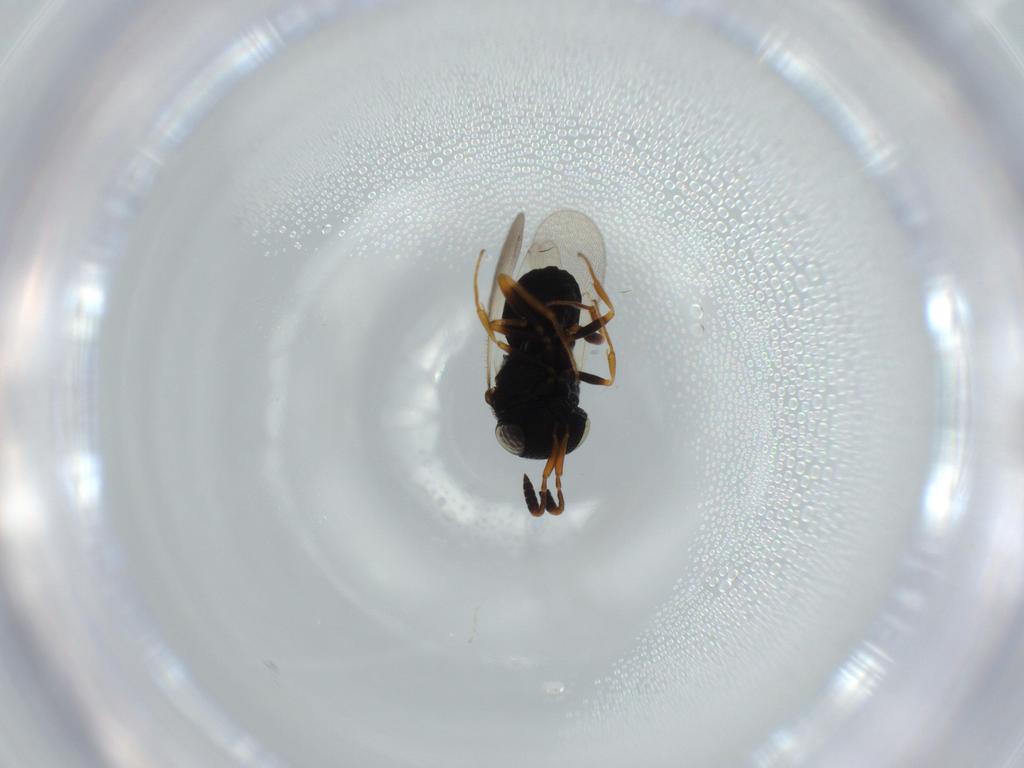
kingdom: Animalia
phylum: Arthropoda
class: Insecta
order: Hymenoptera
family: Scelionidae
